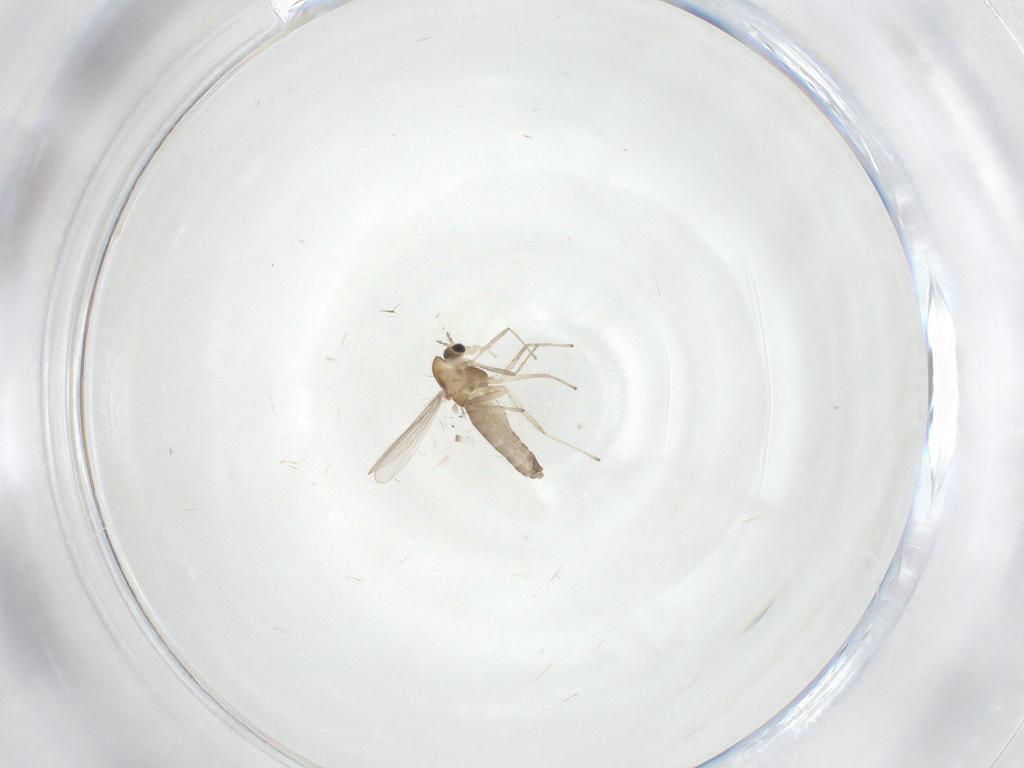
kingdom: Animalia
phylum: Arthropoda
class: Insecta
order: Diptera
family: Chironomidae
